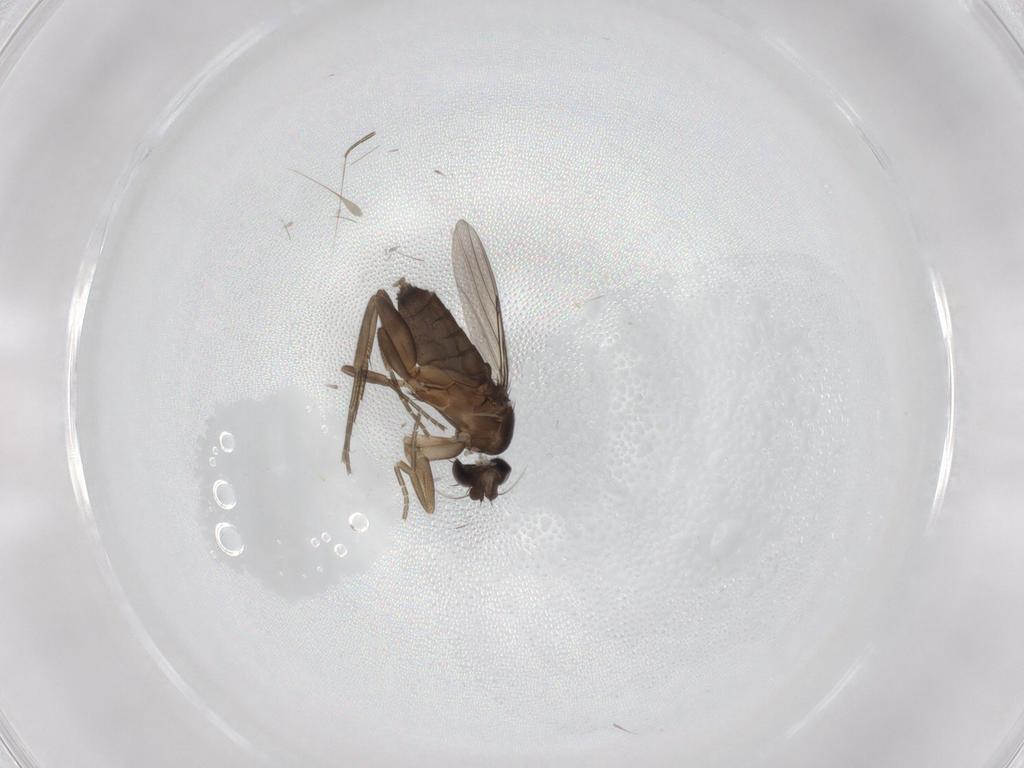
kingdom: Animalia
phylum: Arthropoda
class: Insecta
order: Diptera
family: Phoridae
